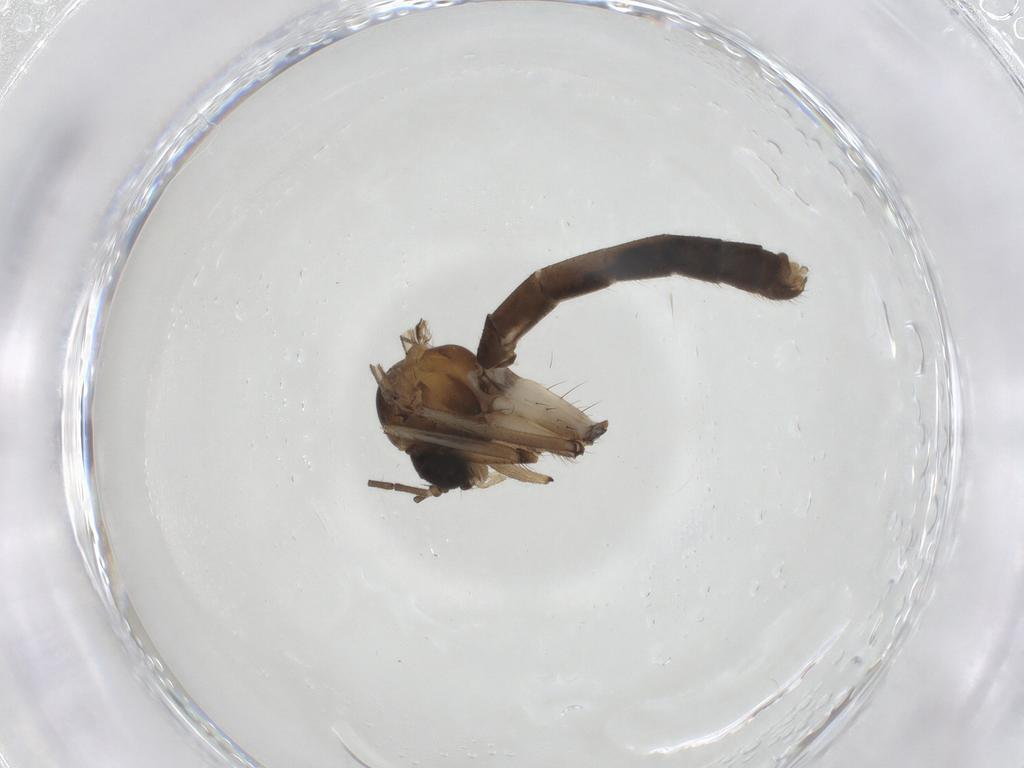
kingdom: Animalia
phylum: Arthropoda
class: Insecta
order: Diptera
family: Mycetophilidae
